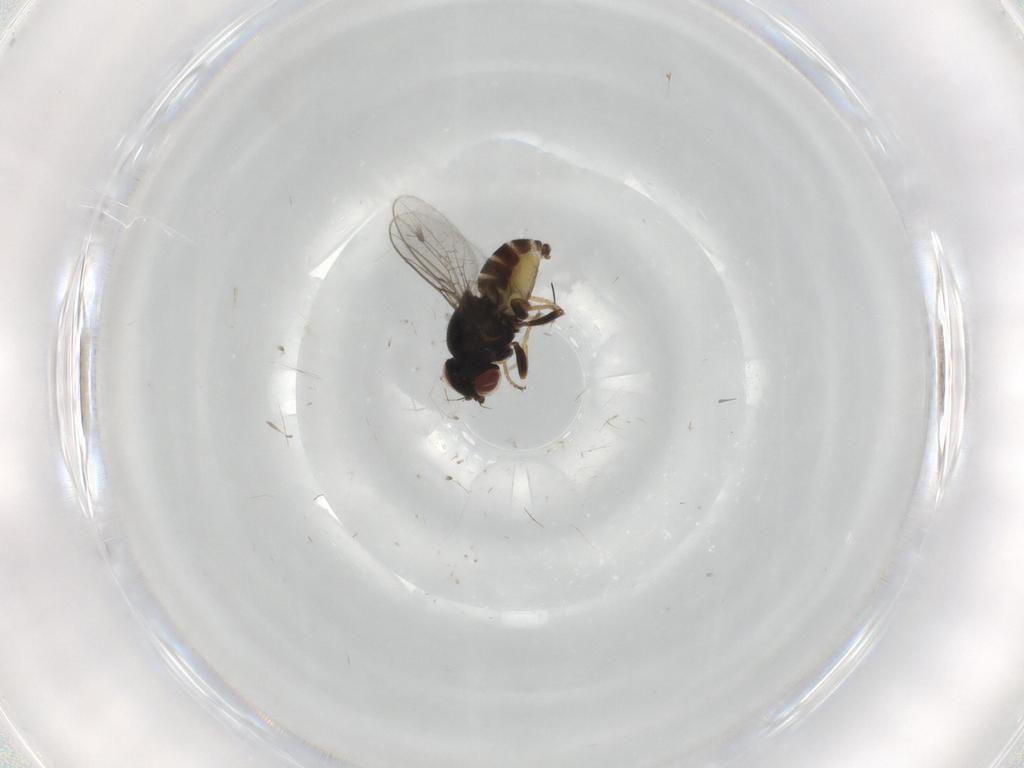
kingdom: Animalia
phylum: Arthropoda
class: Insecta
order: Diptera
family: Chloropidae
